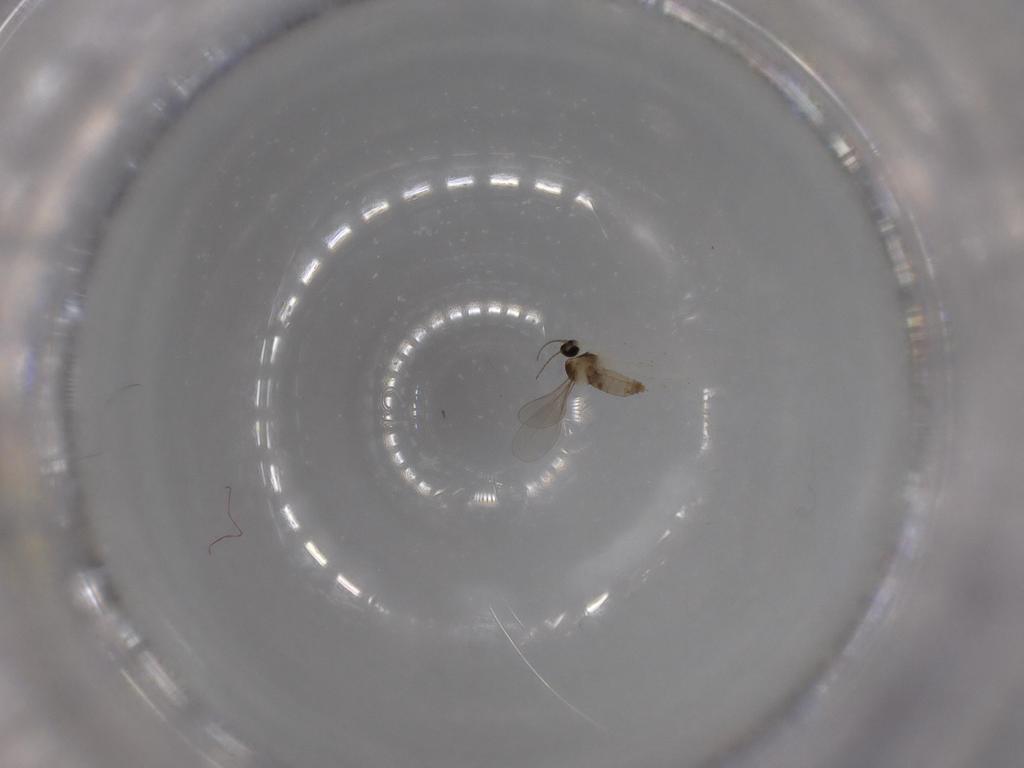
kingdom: Animalia
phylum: Arthropoda
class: Insecta
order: Diptera
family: Cecidomyiidae
